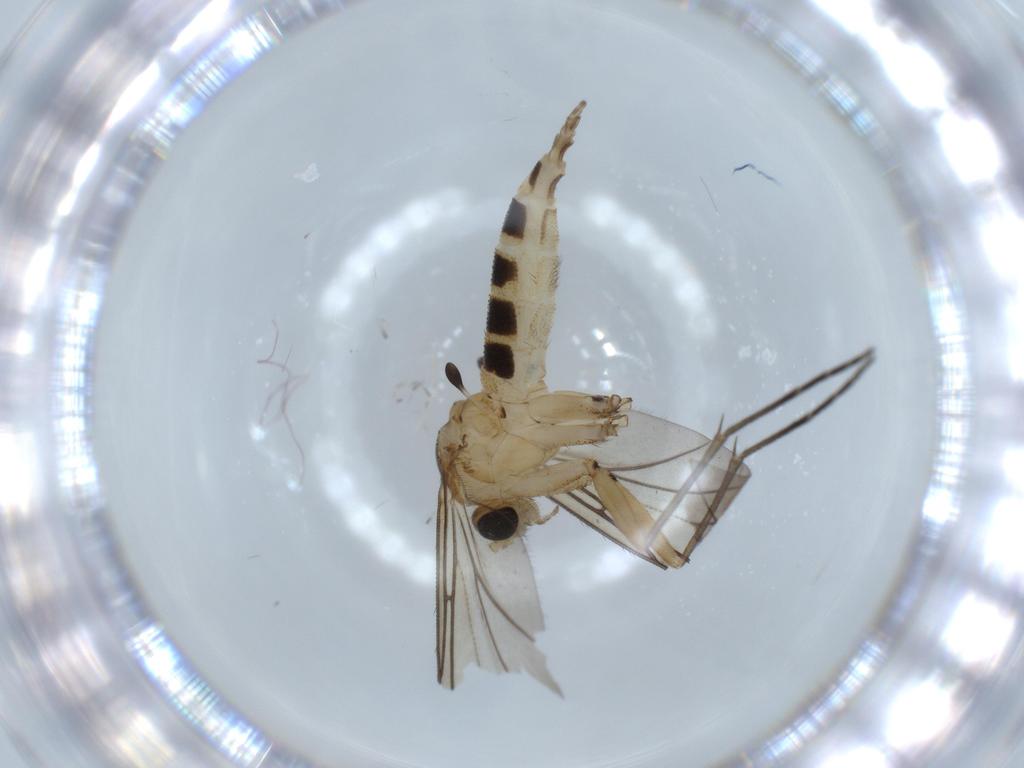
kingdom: Animalia
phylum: Arthropoda
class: Insecta
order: Diptera
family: Sciaridae
